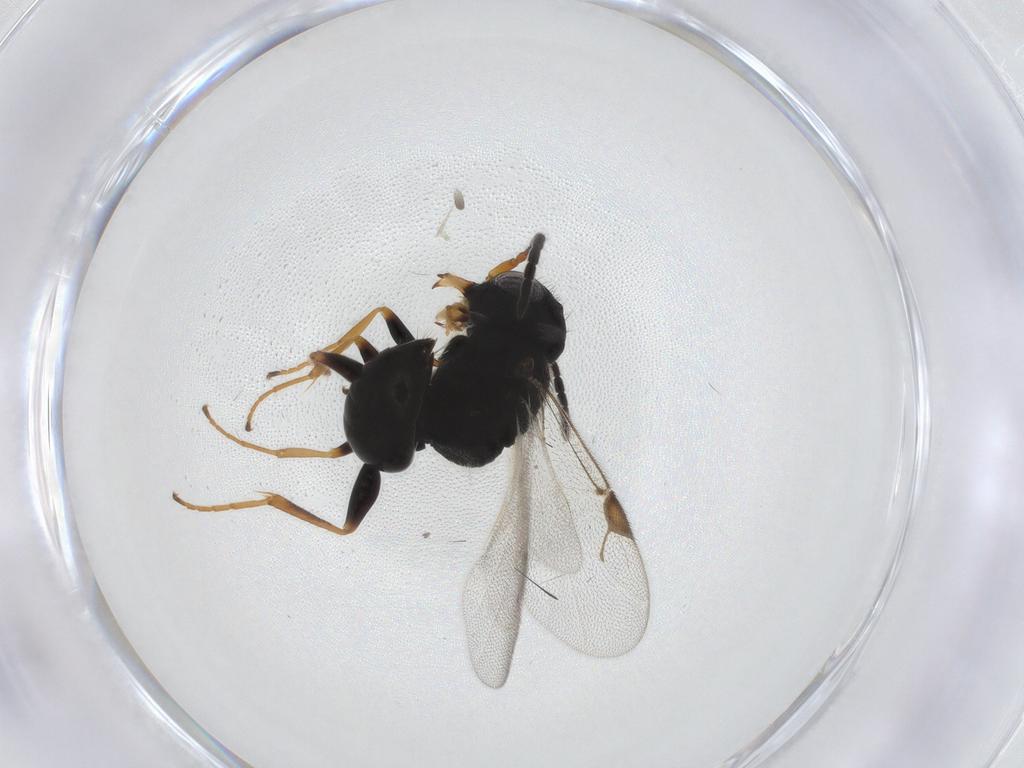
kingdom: Animalia
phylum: Arthropoda
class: Insecta
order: Hymenoptera
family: Dryinidae
